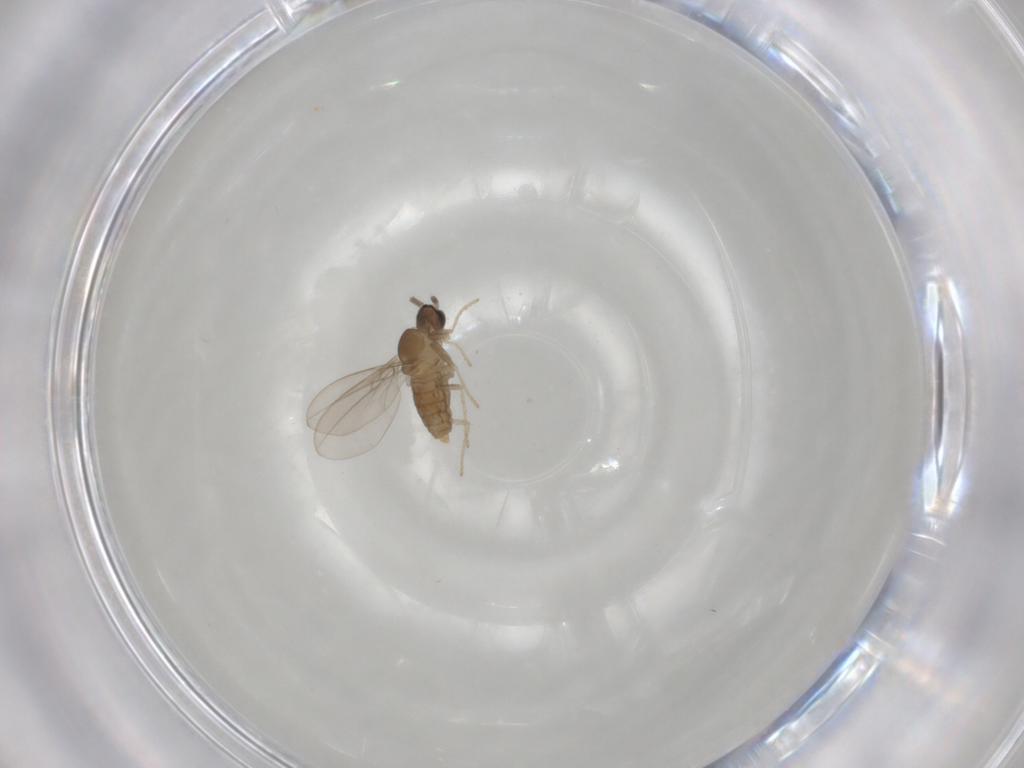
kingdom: Animalia
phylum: Arthropoda
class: Insecta
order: Diptera
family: Cecidomyiidae
